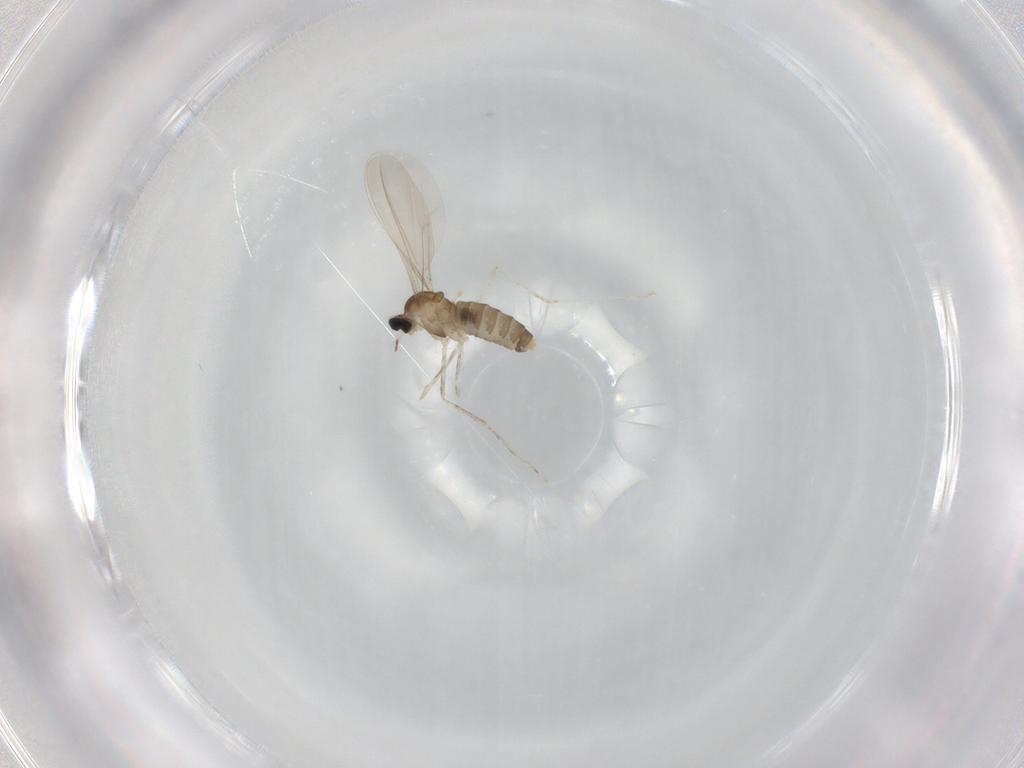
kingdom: Animalia
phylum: Arthropoda
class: Insecta
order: Diptera
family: Cecidomyiidae
